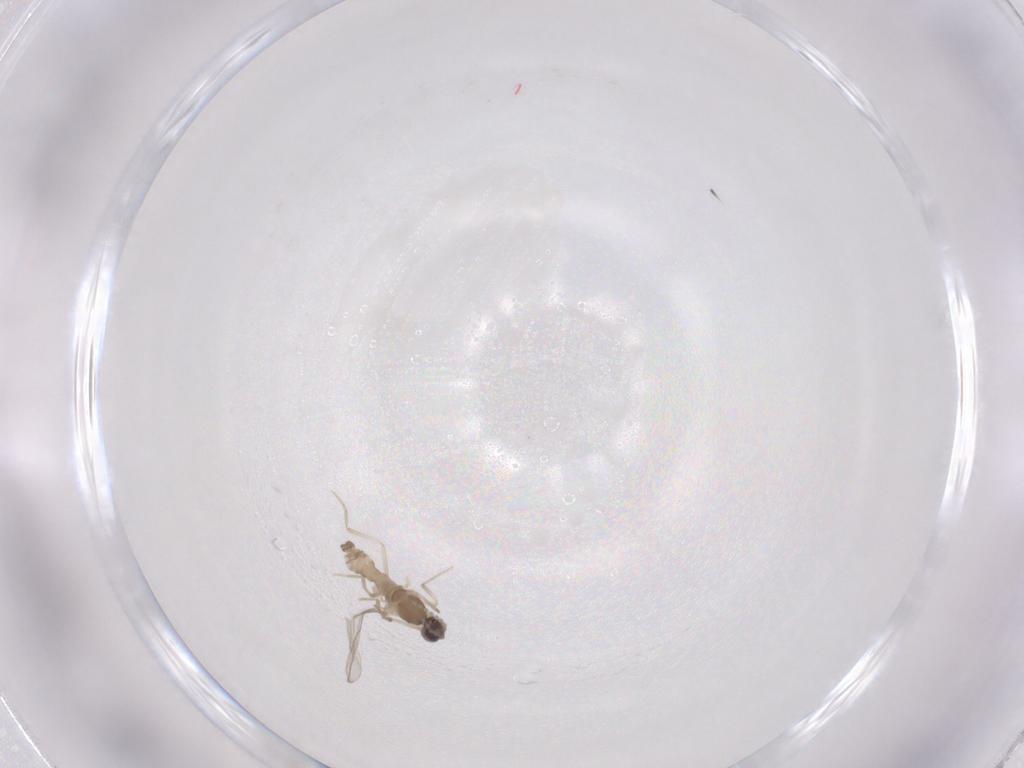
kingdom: Animalia
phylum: Arthropoda
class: Insecta
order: Diptera
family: Cecidomyiidae
